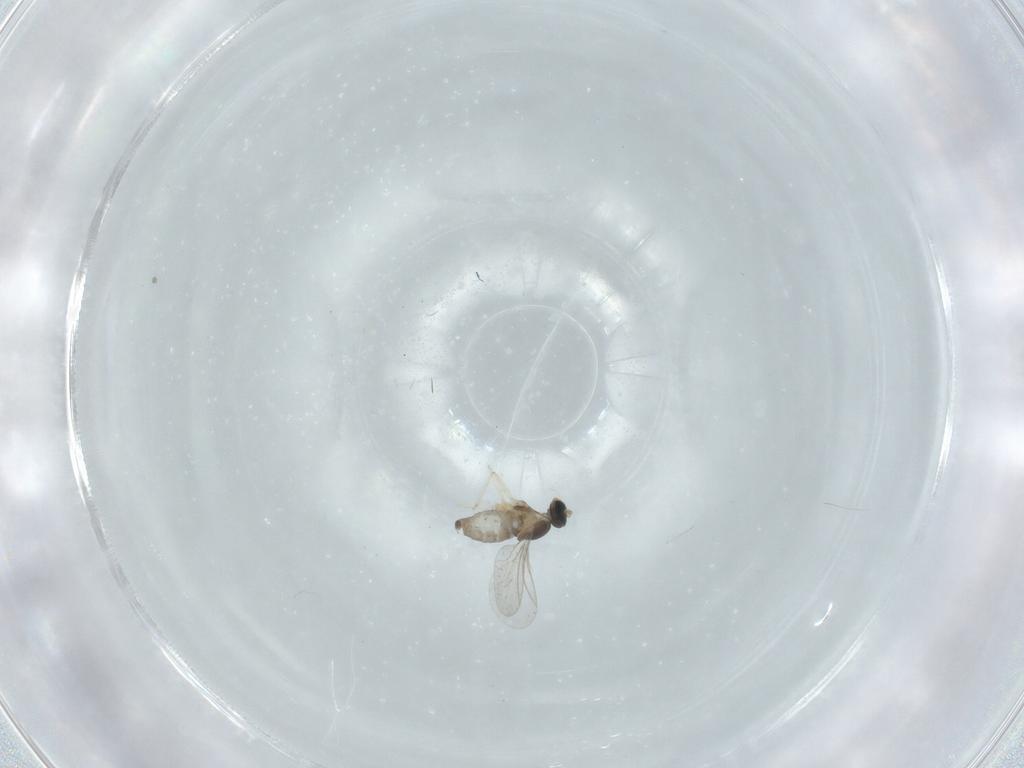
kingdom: Animalia
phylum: Arthropoda
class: Insecta
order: Diptera
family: Cecidomyiidae
